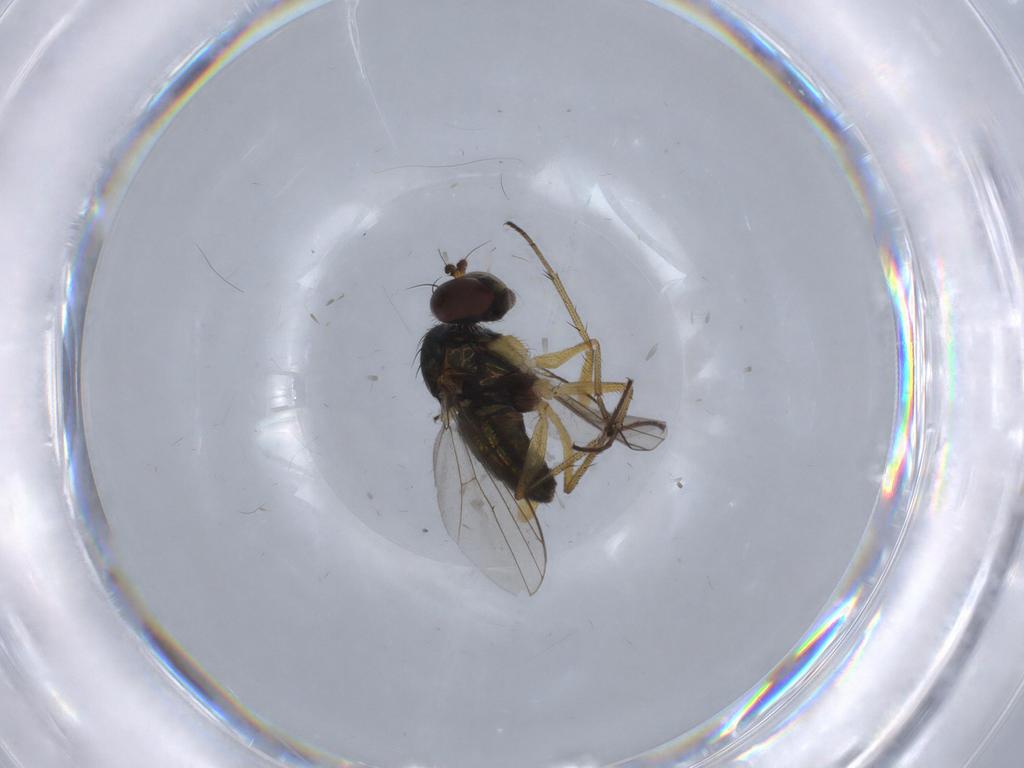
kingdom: Animalia
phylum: Arthropoda
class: Insecta
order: Diptera
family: Dolichopodidae
